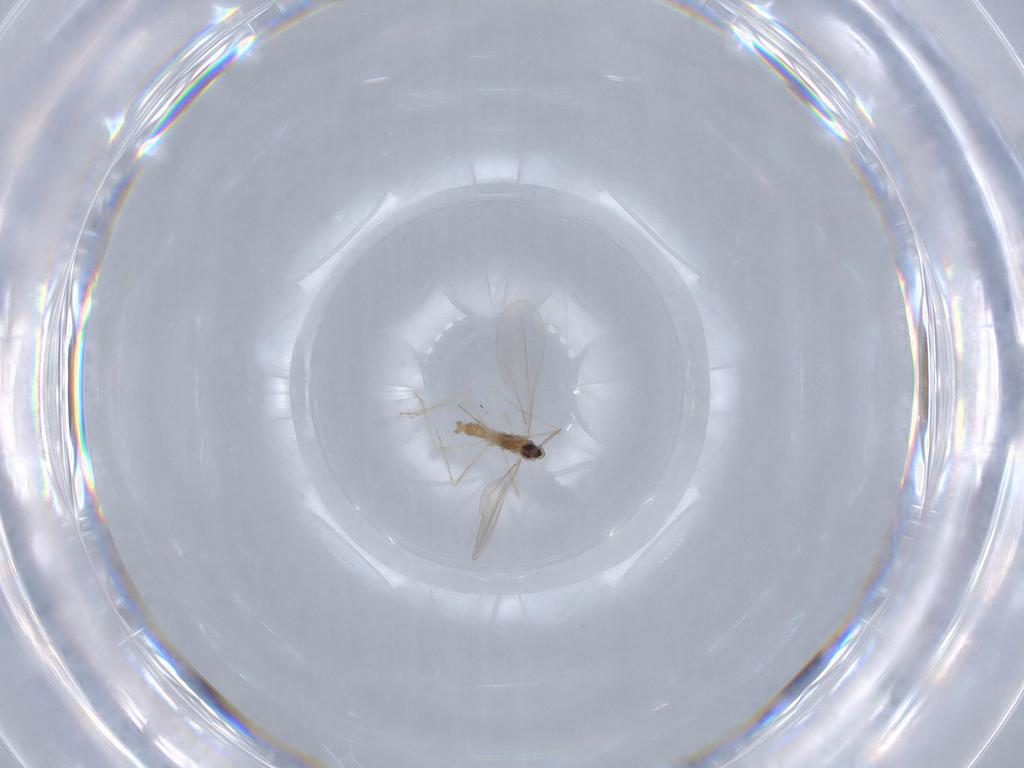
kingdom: Animalia
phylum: Arthropoda
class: Insecta
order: Diptera
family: Cecidomyiidae
